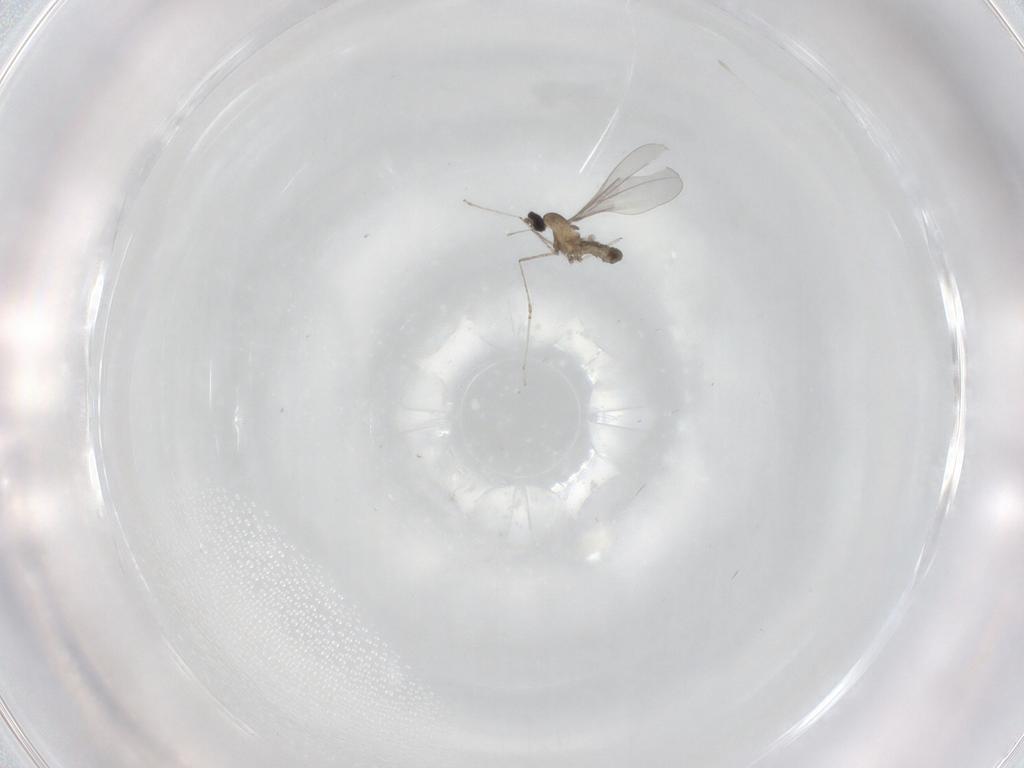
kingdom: Animalia
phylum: Arthropoda
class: Insecta
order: Diptera
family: Cecidomyiidae
